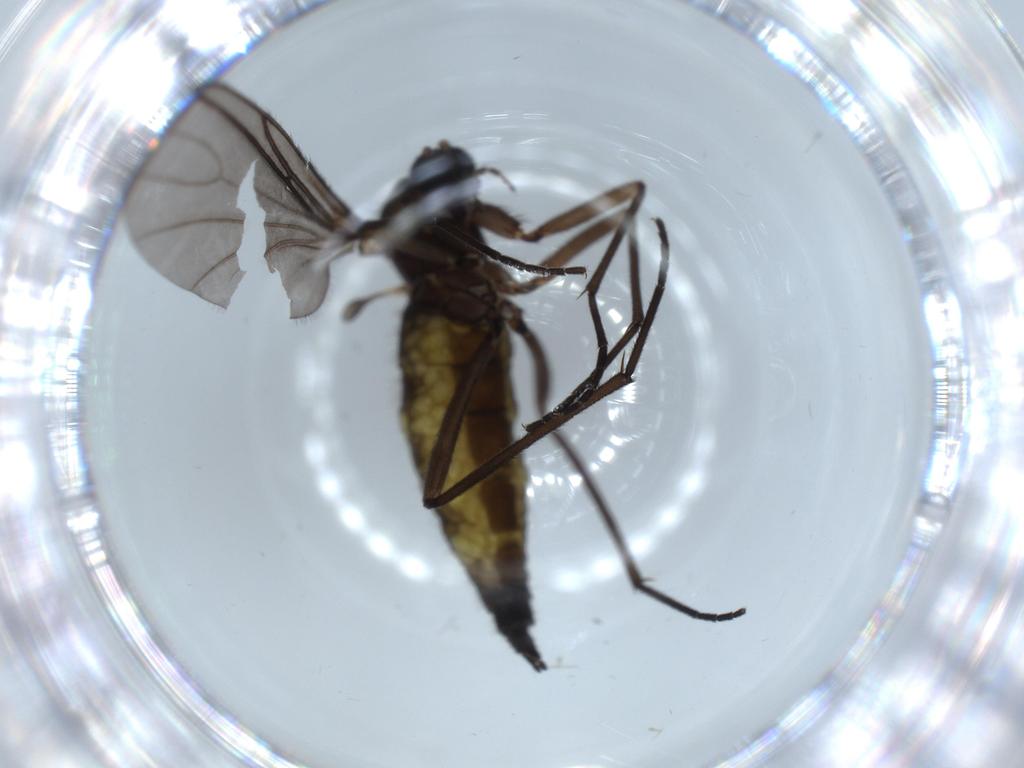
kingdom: Animalia
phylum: Arthropoda
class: Insecta
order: Diptera
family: Sciaridae
